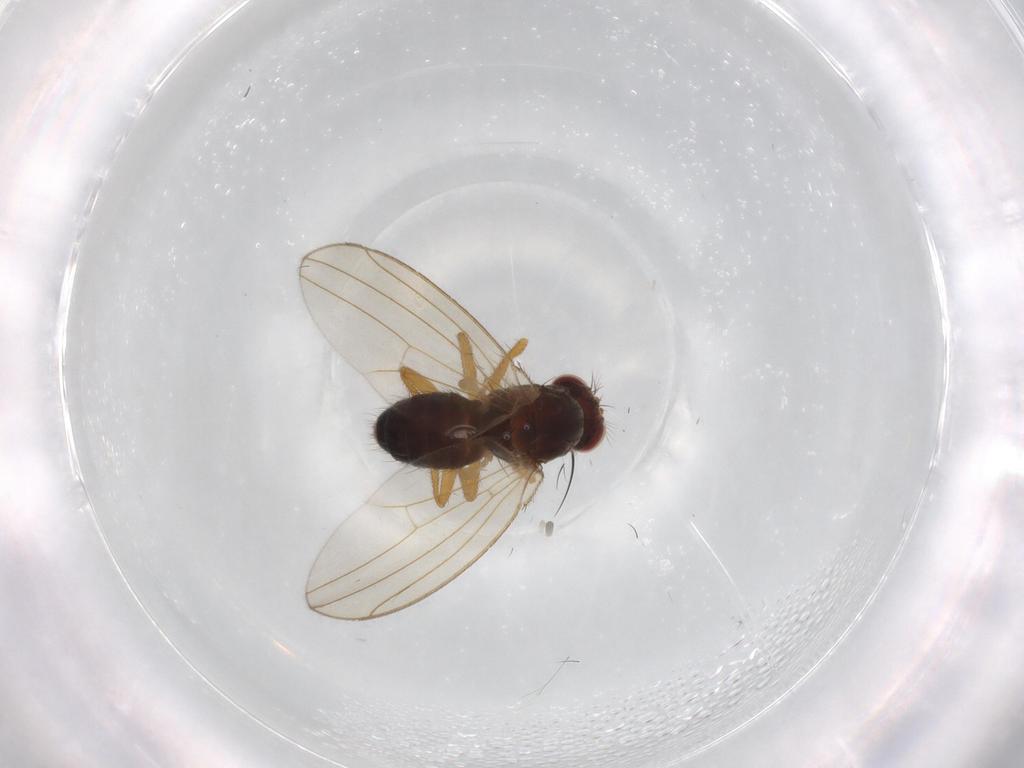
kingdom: Animalia
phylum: Arthropoda
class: Insecta
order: Diptera
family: Drosophilidae
